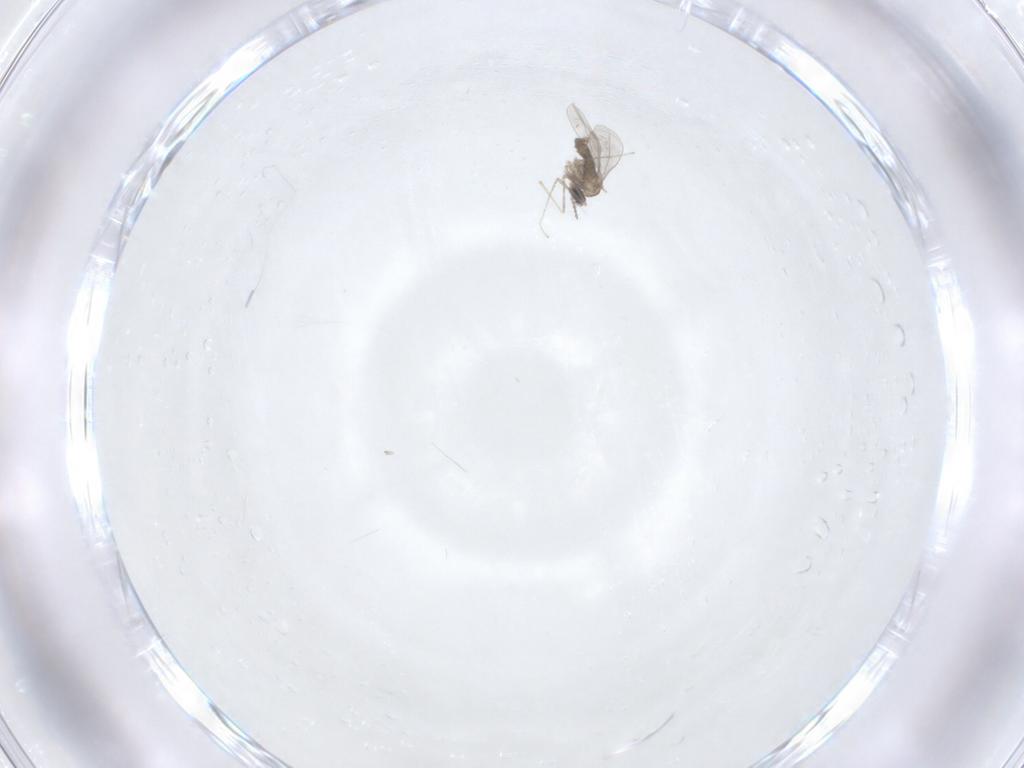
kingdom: Animalia
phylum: Arthropoda
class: Insecta
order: Diptera
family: Cecidomyiidae
